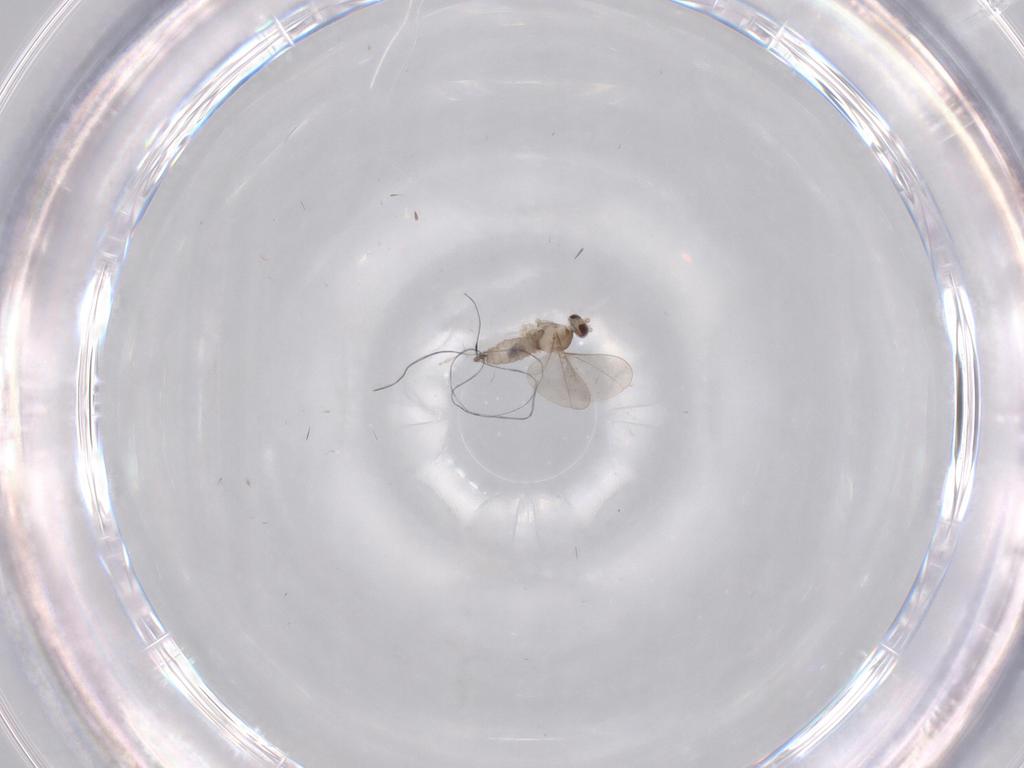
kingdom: Animalia
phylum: Arthropoda
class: Insecta
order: Diptera
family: Cecidomyiidae
